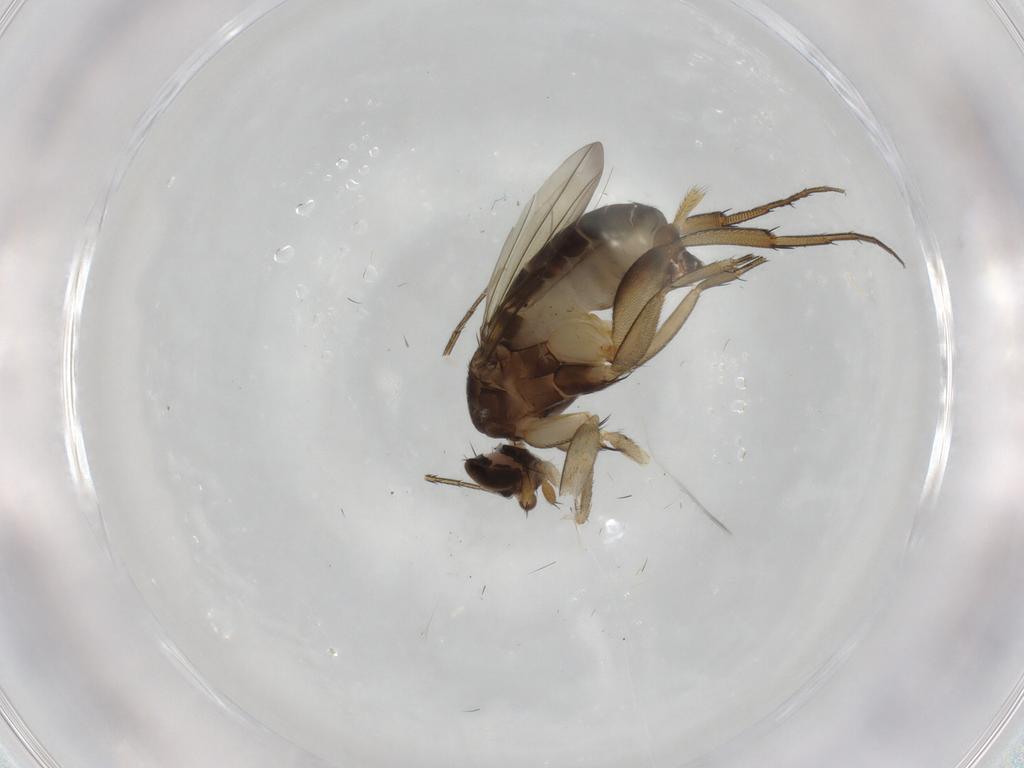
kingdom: Animalia
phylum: Arthropoda
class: Insecta
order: Diptera
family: Phoridae
